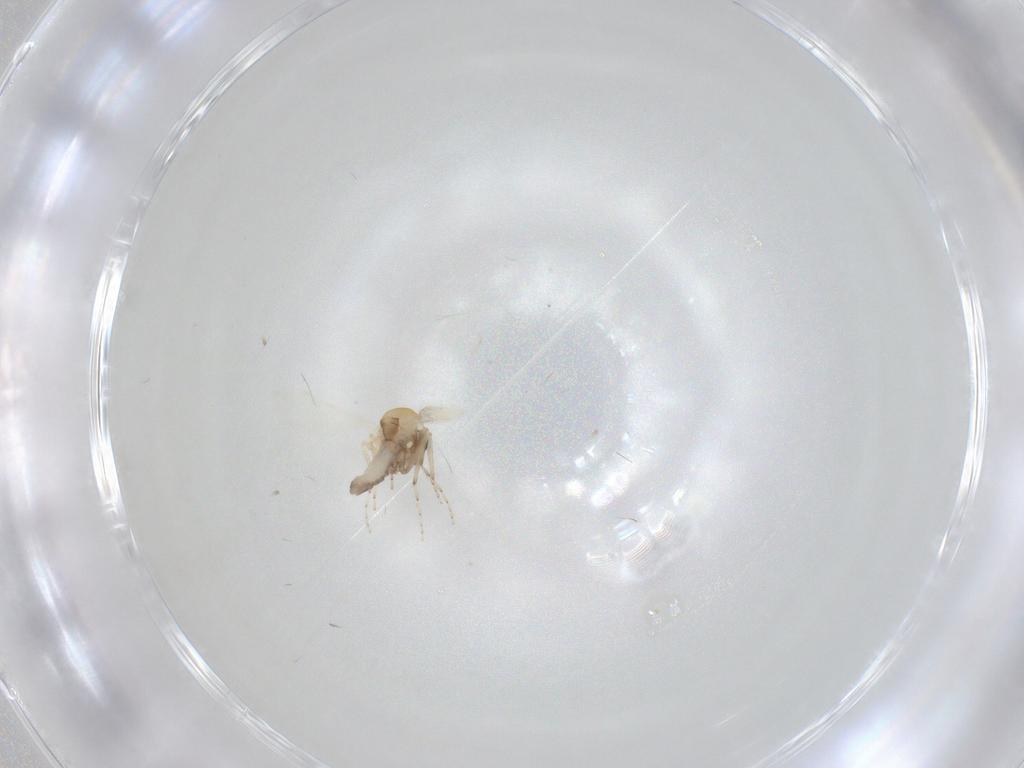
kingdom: Animalia
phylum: Arthropoda
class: Insecta
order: Diptera
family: Ceratopogonidae
